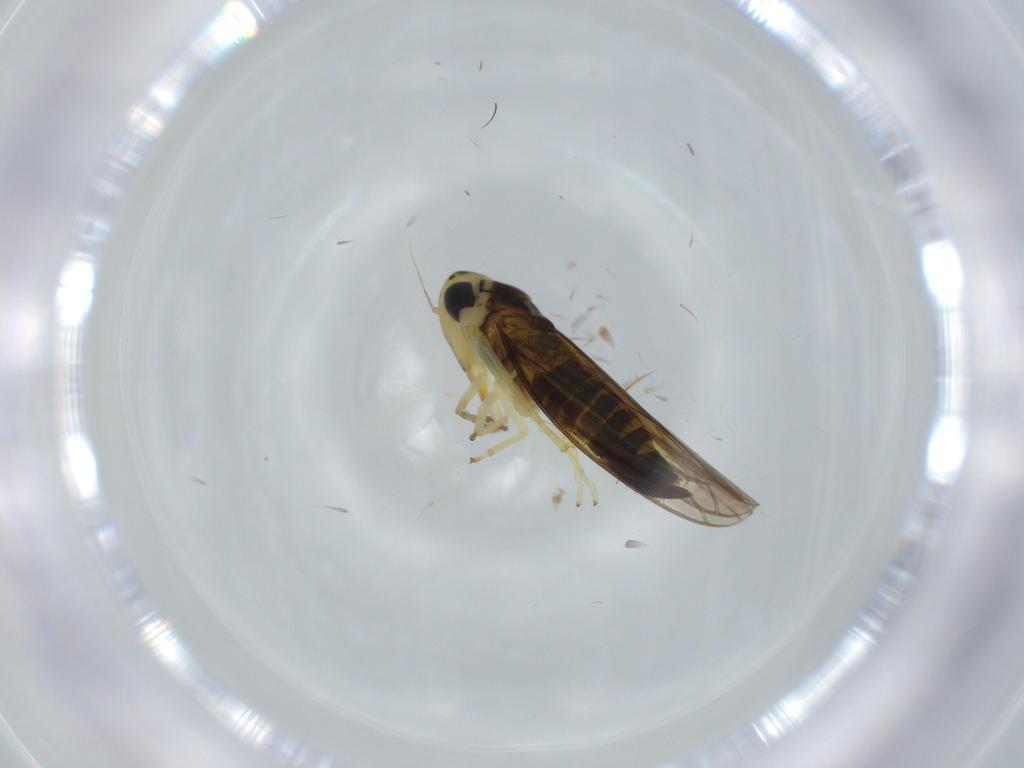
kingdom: Animalia
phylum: Arthropoda
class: Insecta
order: Hemiptera
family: Cicadellidae
